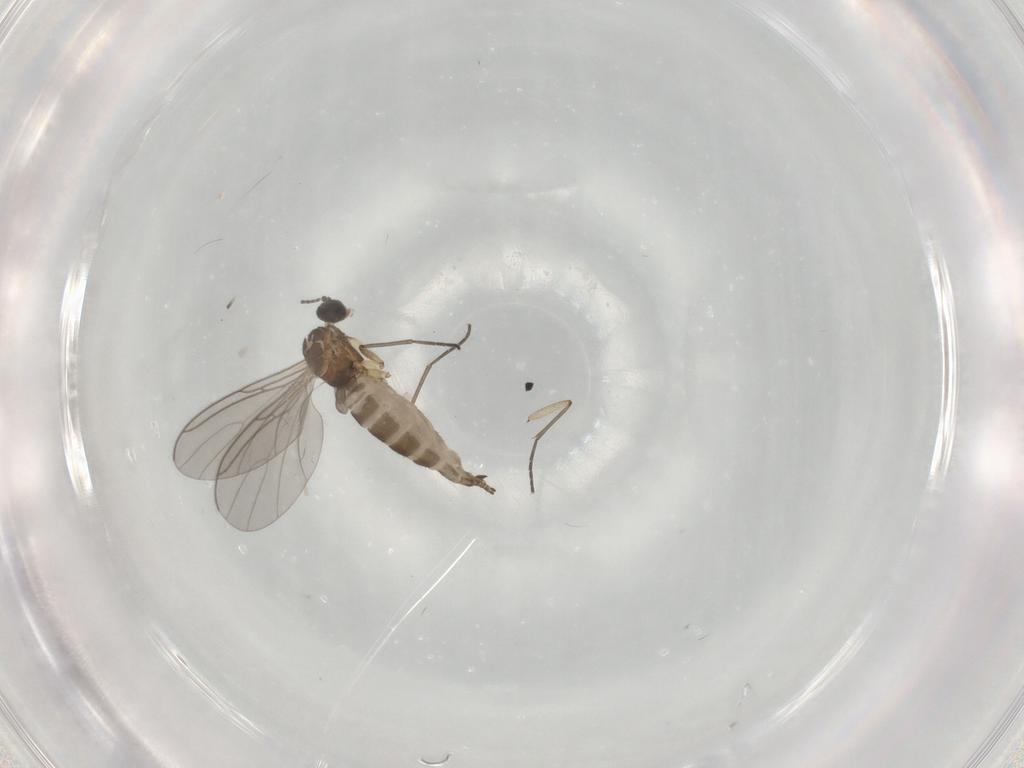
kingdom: Animalia
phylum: Arthropoda
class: Insecta
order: Diptera
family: Sciaridae
